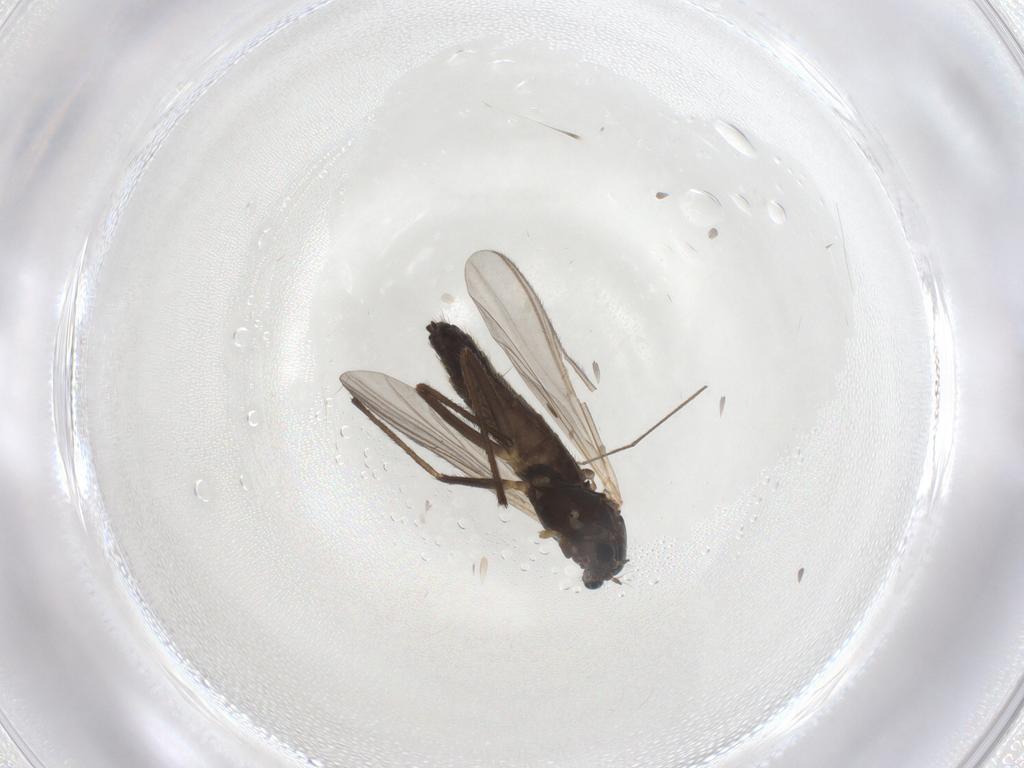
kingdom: Animalia
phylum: Arthropoda
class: Insecta
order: Diptera
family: Chironomidae
